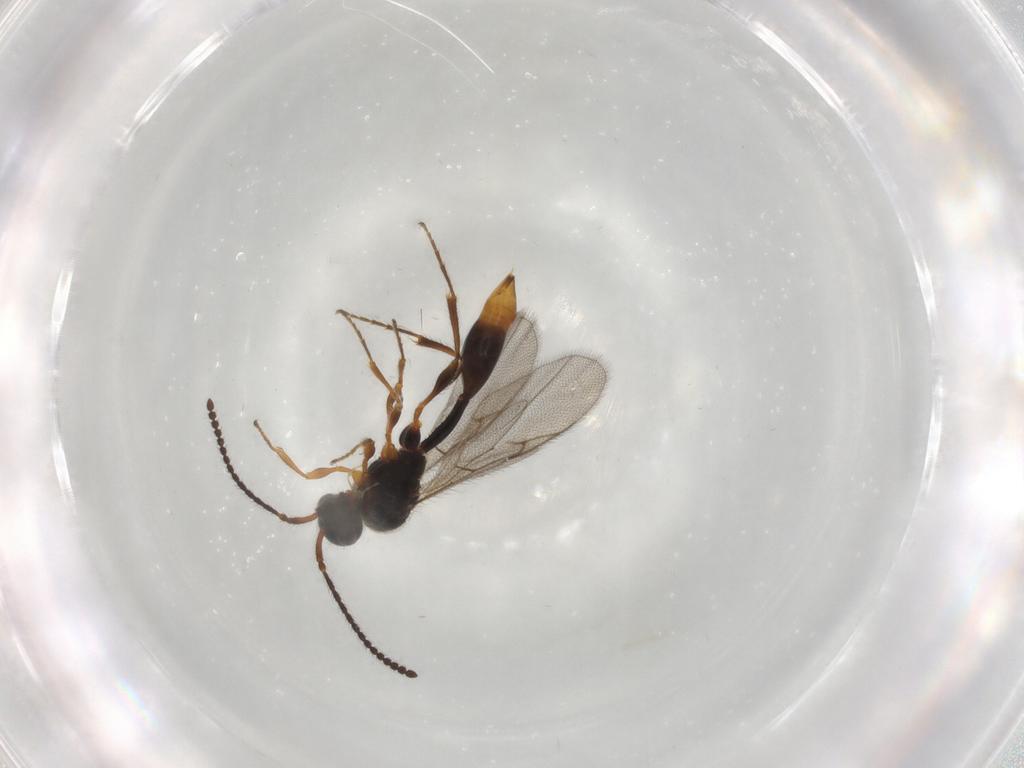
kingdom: Animalia
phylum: Arthropoda
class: Insecta
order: Hymenoptera
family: Diapriidae
